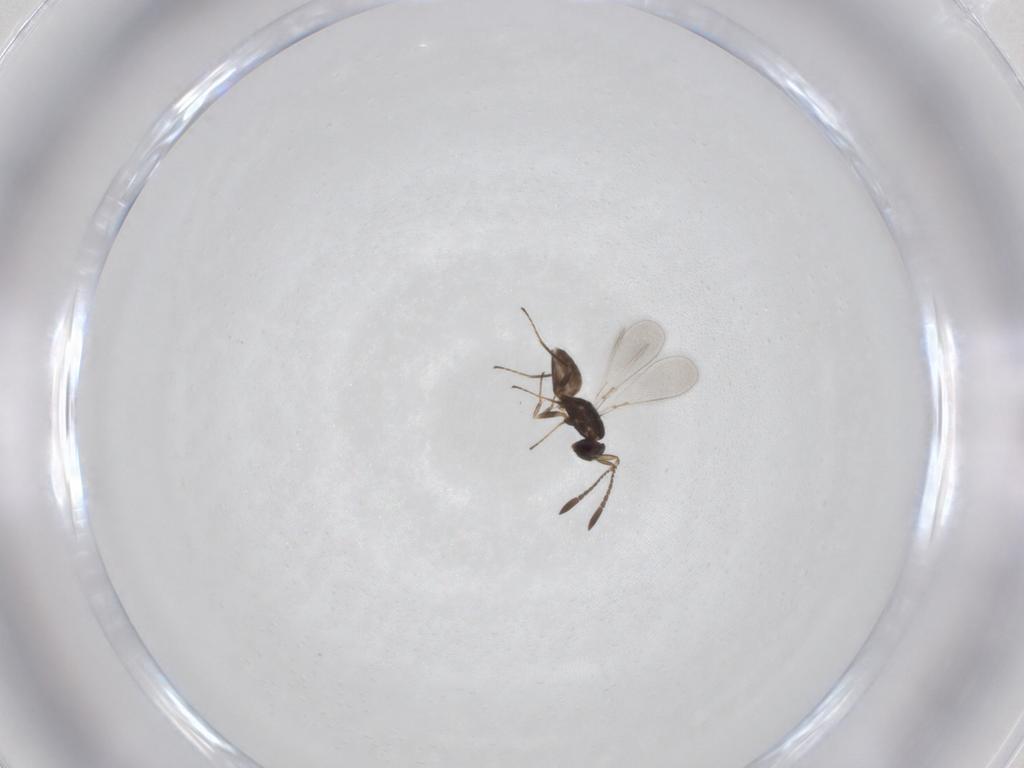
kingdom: Animalia
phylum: Arthropoda
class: Insecta
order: Hymenoptera
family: Mymaridae
